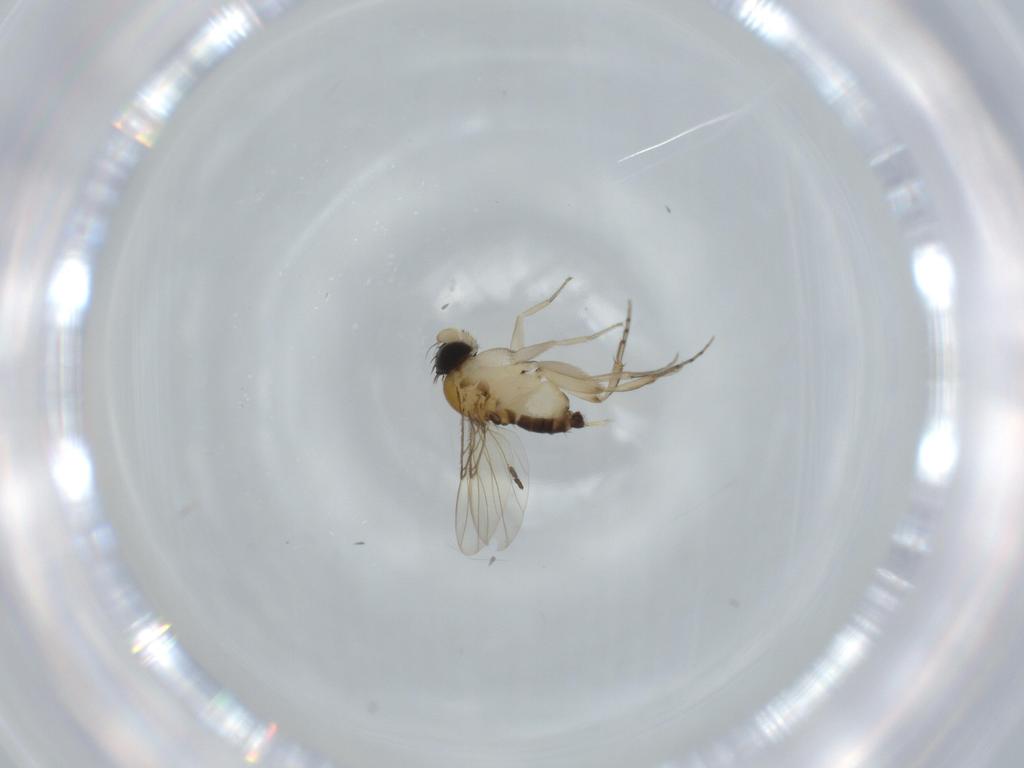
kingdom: Animalia
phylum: Arthropoda
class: Insecta
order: Diptera
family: Phoridae
